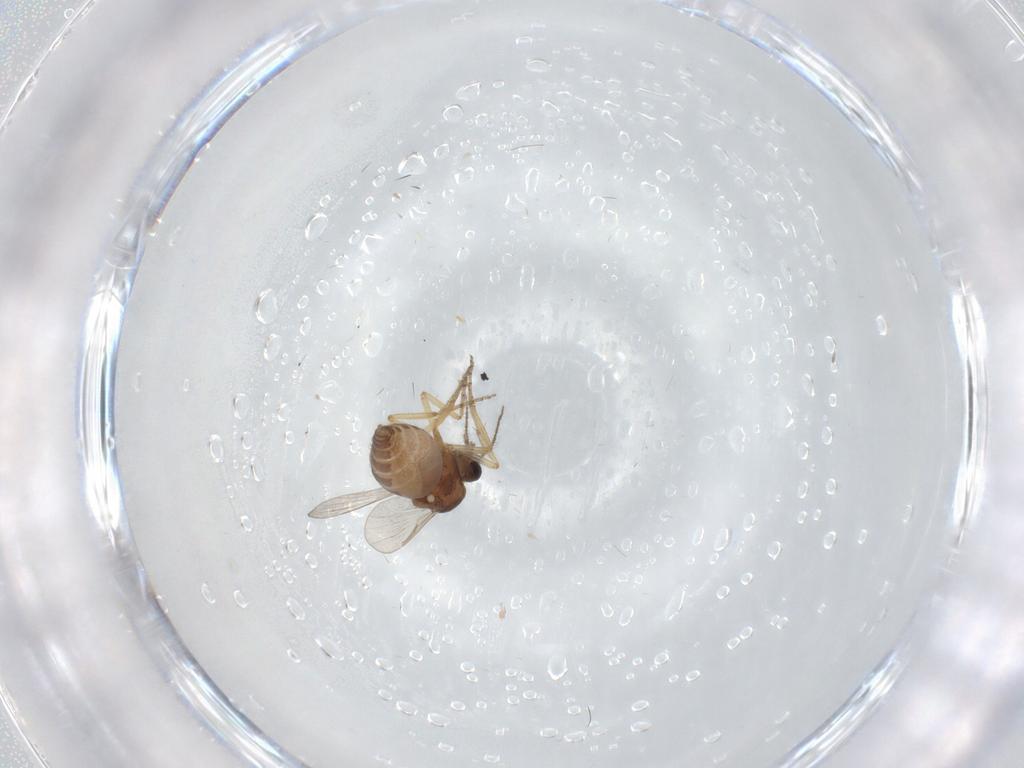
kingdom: Animalia
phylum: Arthropoda
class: Insecta
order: Diptera
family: Ceratopogonidae
